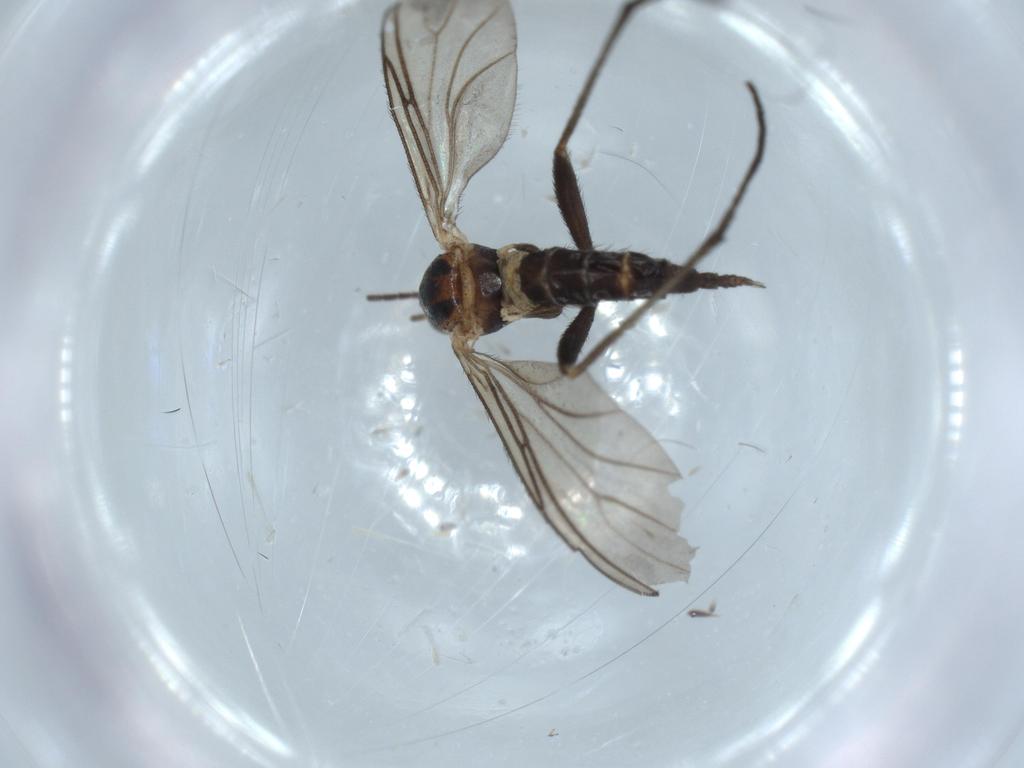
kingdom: Animalia
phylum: Arthropoda
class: Insecta
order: Diptera
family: Sciaridae
